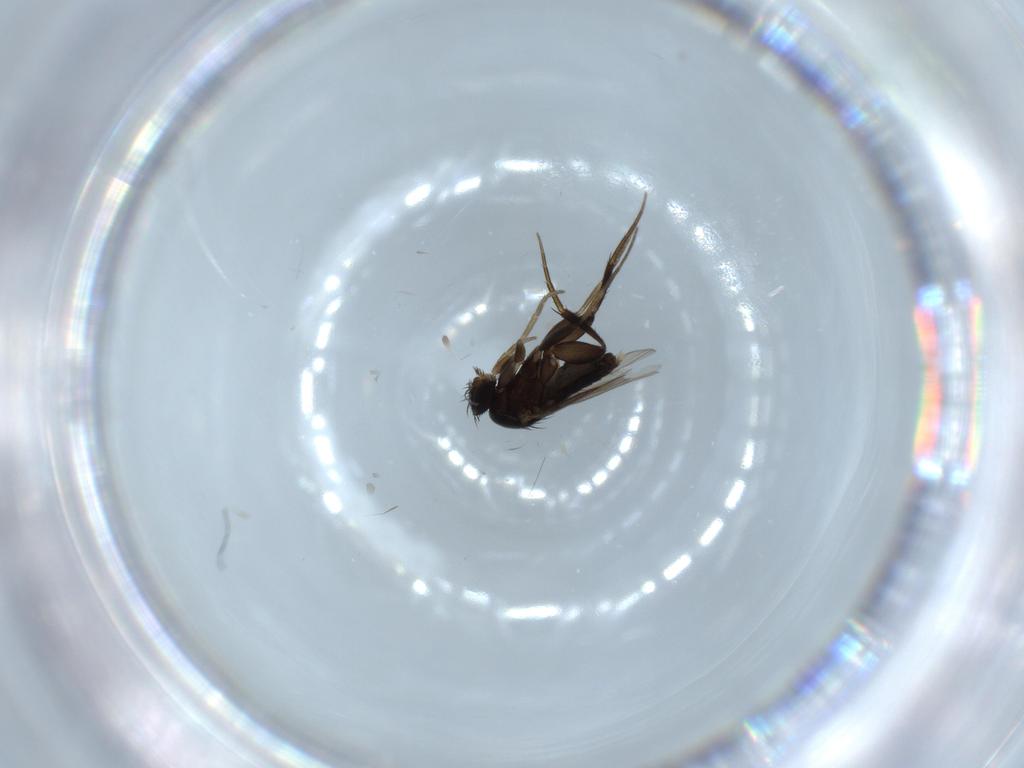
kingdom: Animalia
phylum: Arthropoda
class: Insecta
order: Diptera
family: Phoridae
